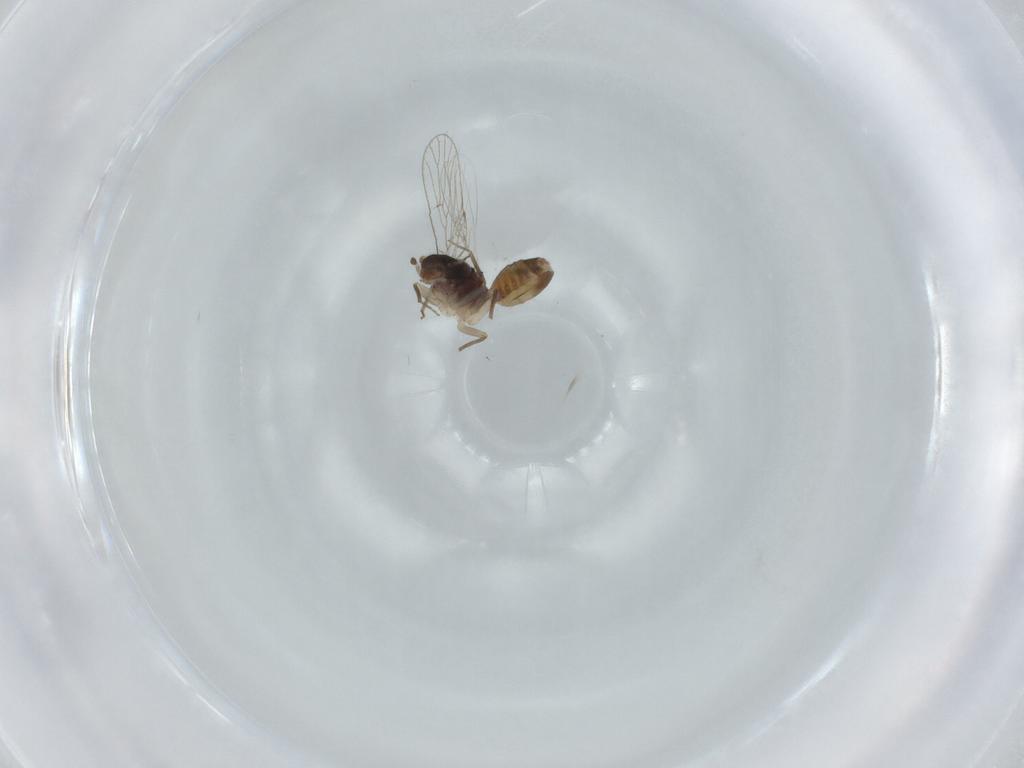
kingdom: Animalia
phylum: Arthropoda
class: Insecta
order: Psocodea
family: Psoquillidae
